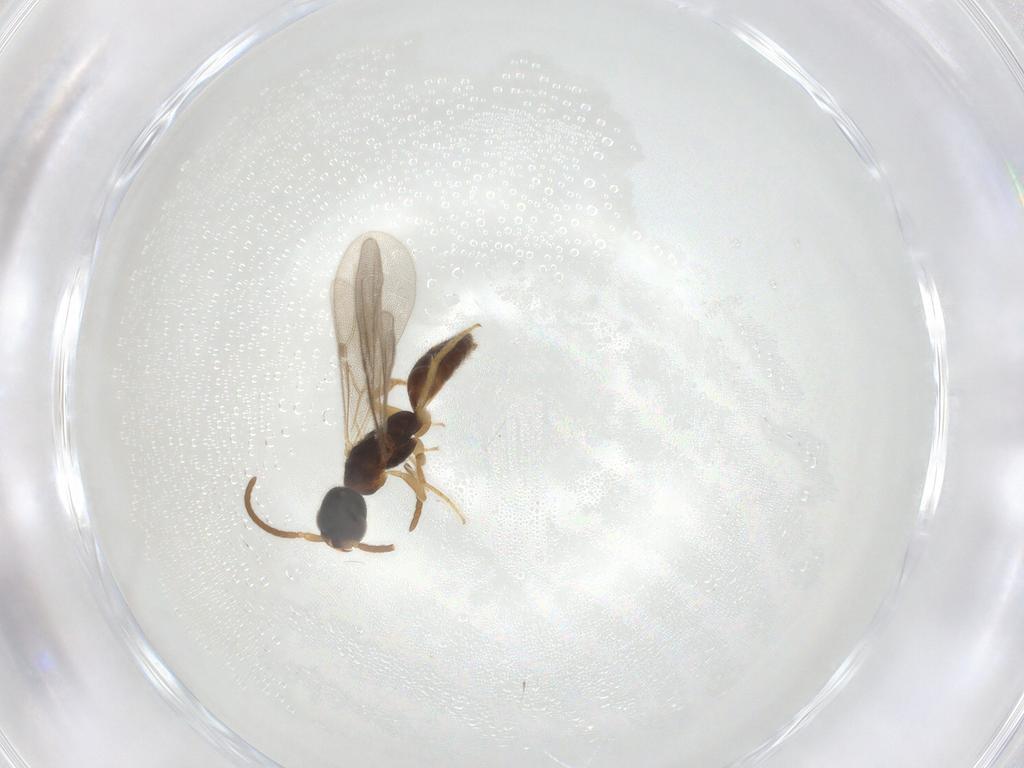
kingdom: Animalia
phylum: Arthropoda
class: Insecta
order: Hymenoptera
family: Bethylidae
